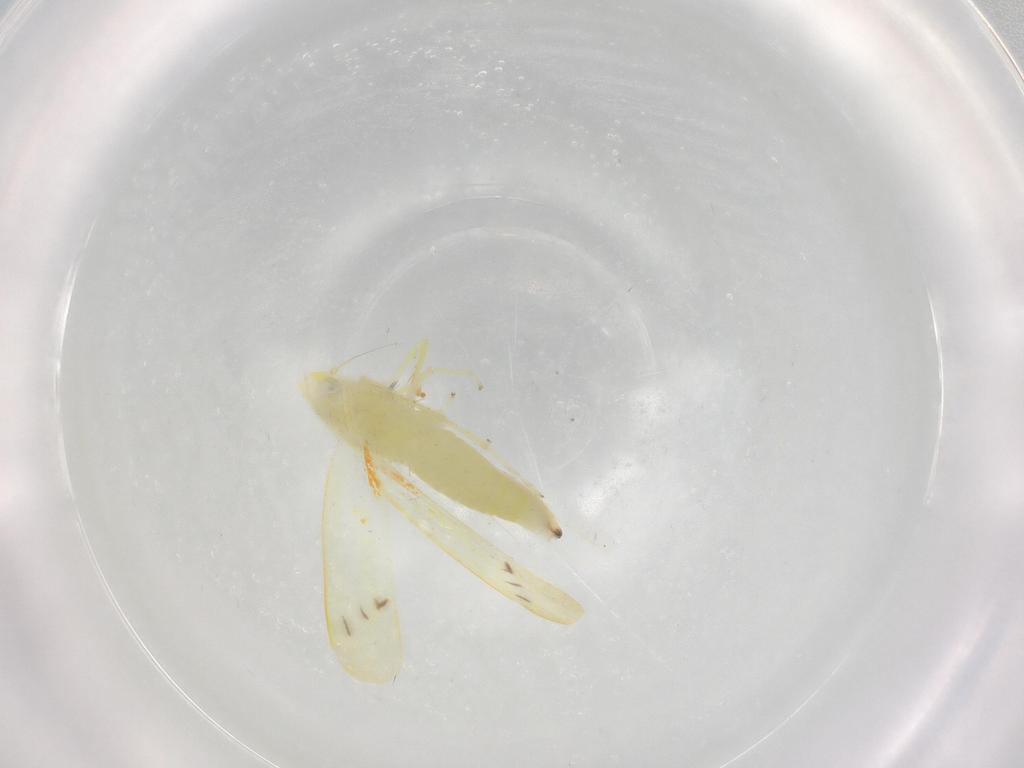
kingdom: Animalia
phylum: Arthropoda
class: Insecta
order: Hemiptera
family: Cicadellidae
